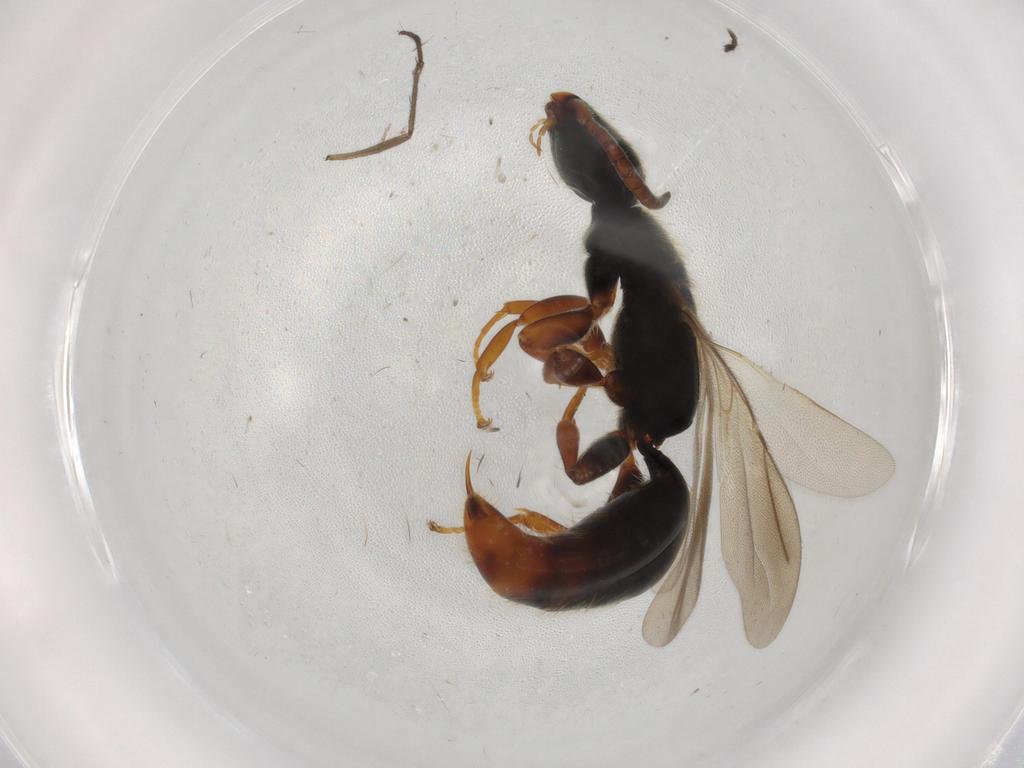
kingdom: Animalia
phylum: Arthropoda
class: Insecta
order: Hymenoptera
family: Bethylidae
